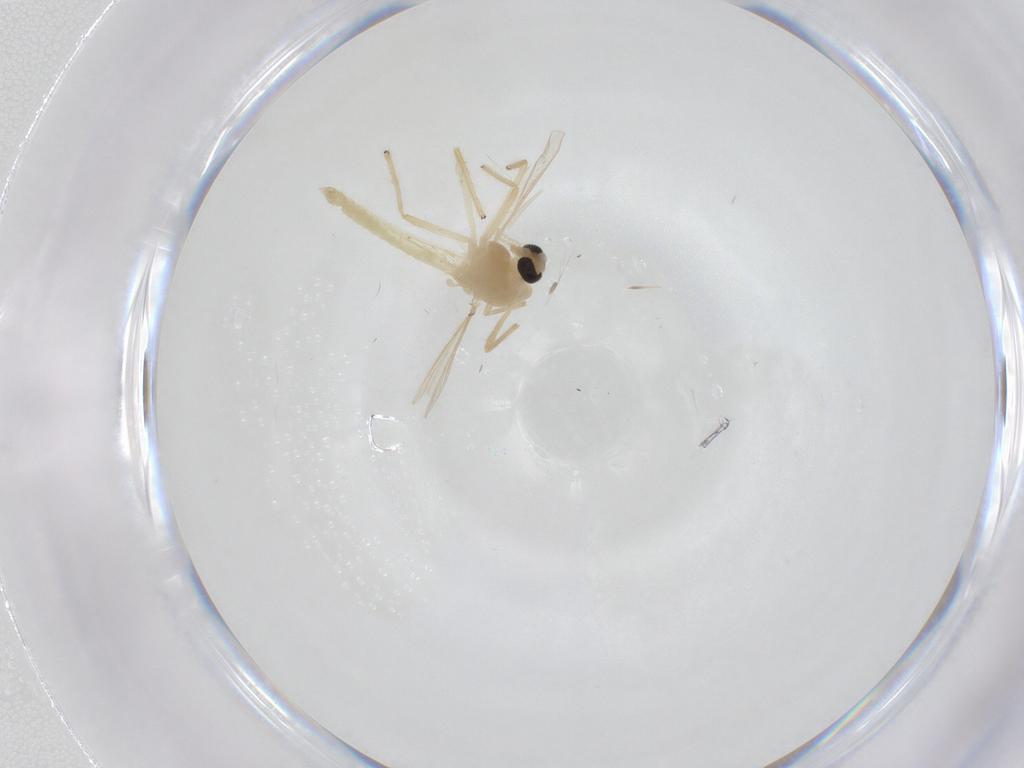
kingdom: Animalia
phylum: Arthropoda
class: Insecta
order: Diptera
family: Chironomidae
